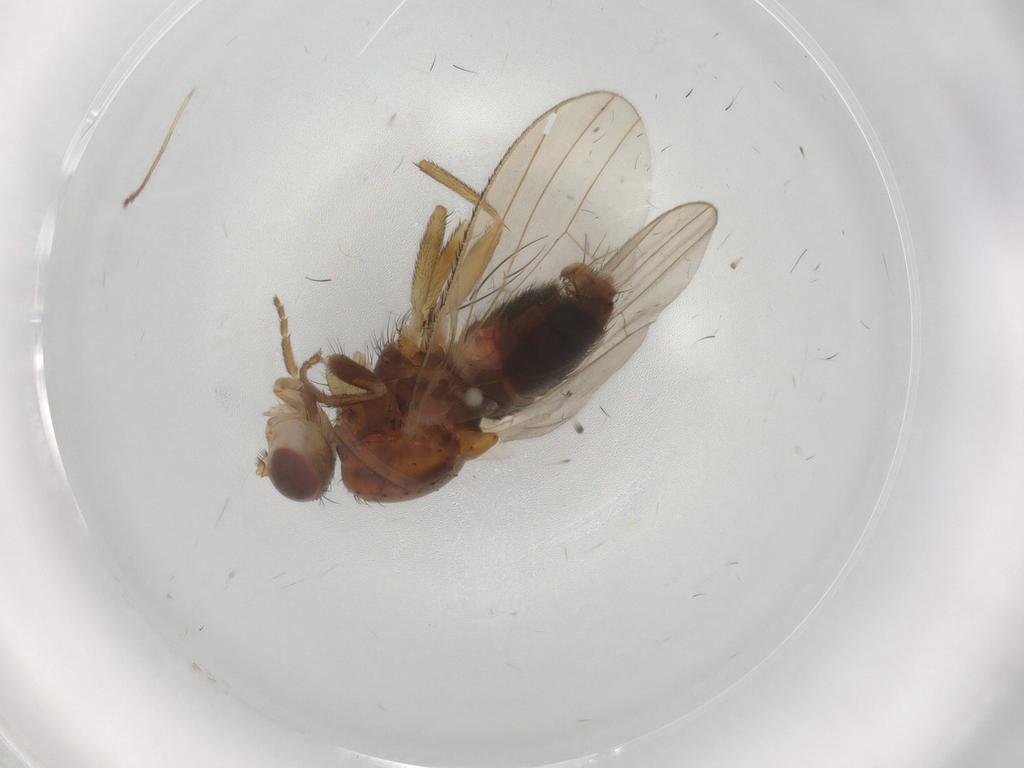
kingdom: Animalia
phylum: Arthropoda
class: Insecta
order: Diptera
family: Heleomyzidae
